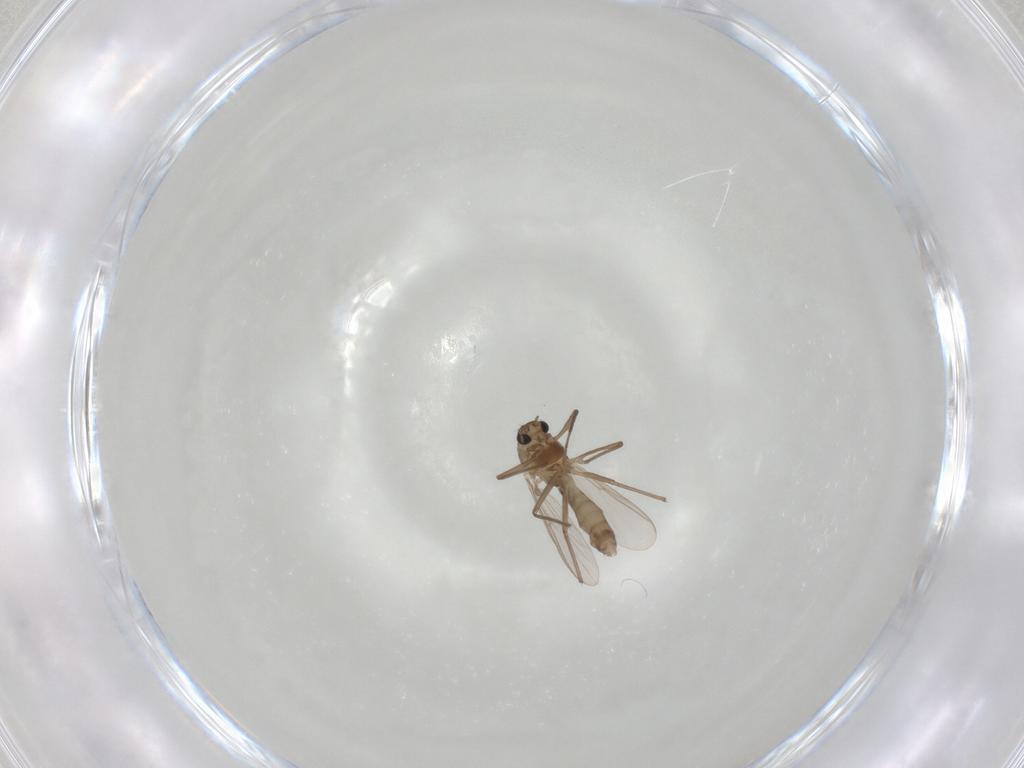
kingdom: Animalia
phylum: Arthropoda
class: Insecta
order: Diptera
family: Chironomidae
